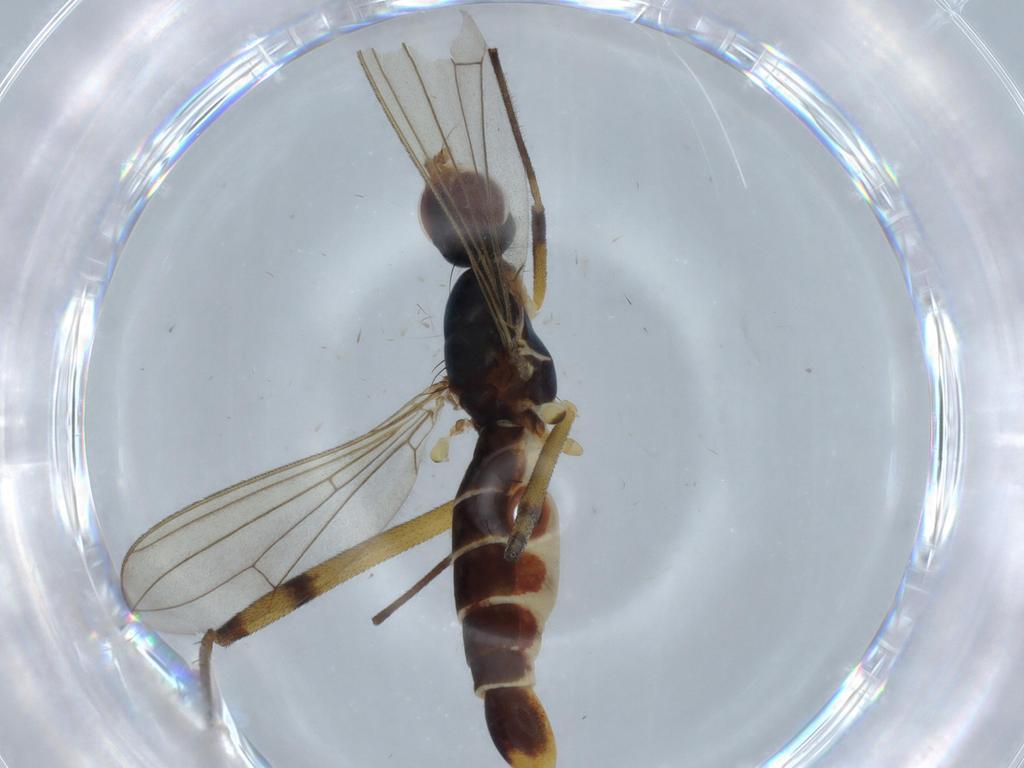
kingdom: Animalia
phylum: Arthropoda
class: Insecta
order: Diptera
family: Micropezidae
